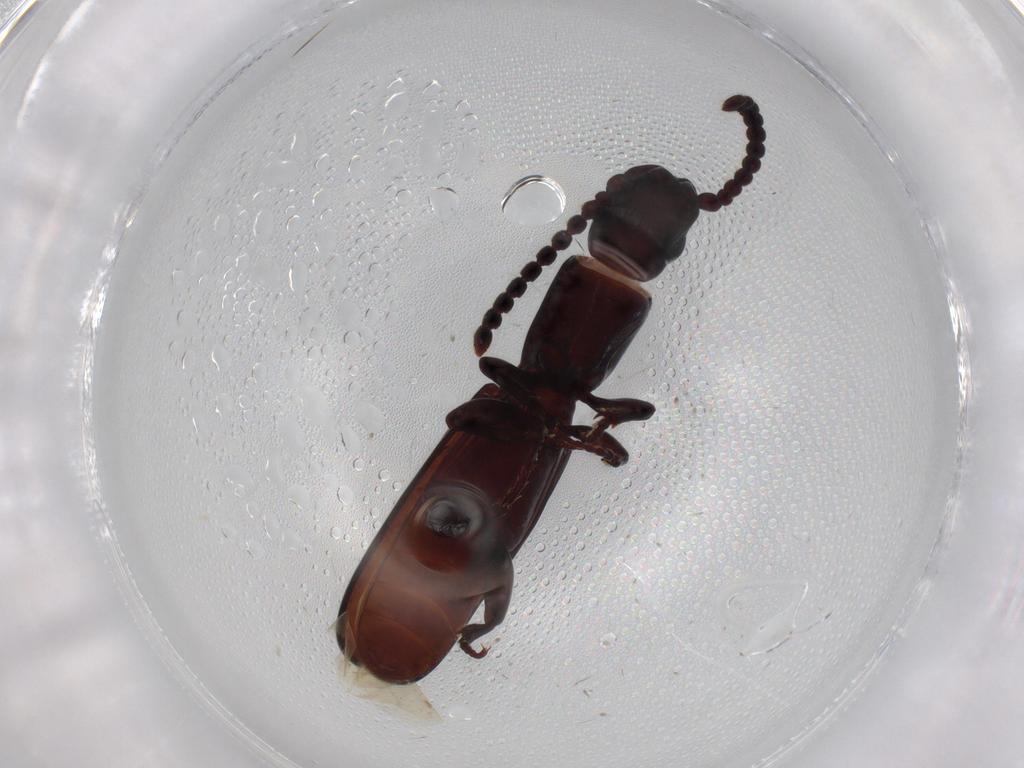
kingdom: Animalia
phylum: Arthropoda
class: Insecta
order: Coleoptera
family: Passandridae
